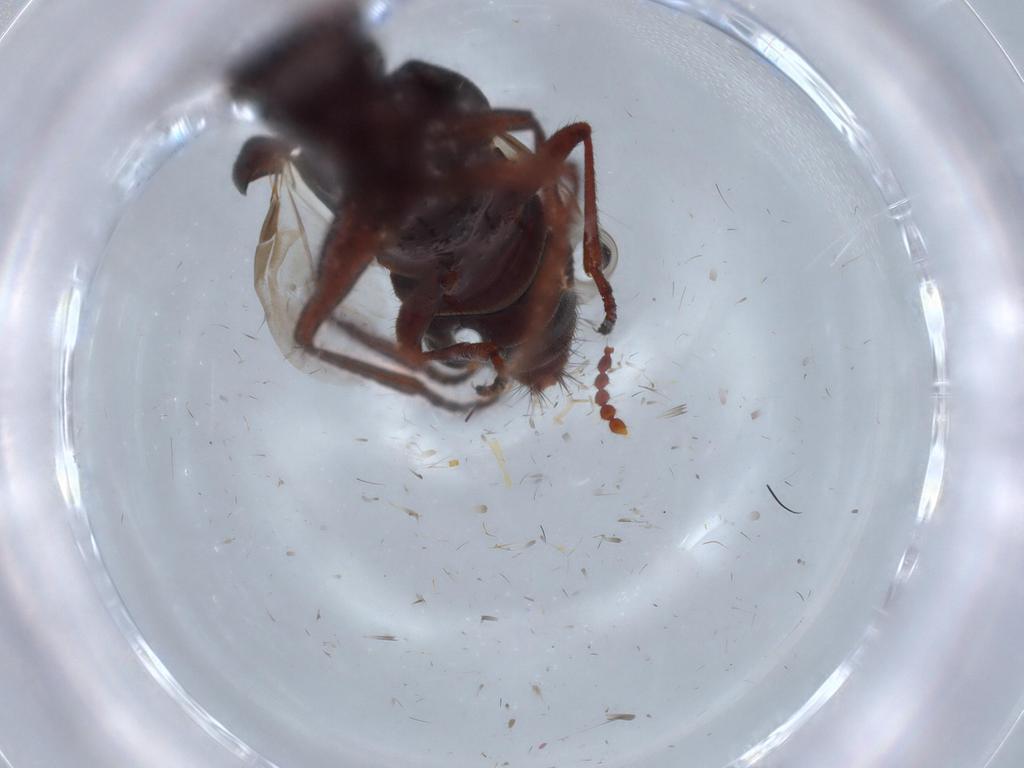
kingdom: Animalia
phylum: Arthropoda
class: Insecta
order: Coleoptera
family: Staphylinidae
